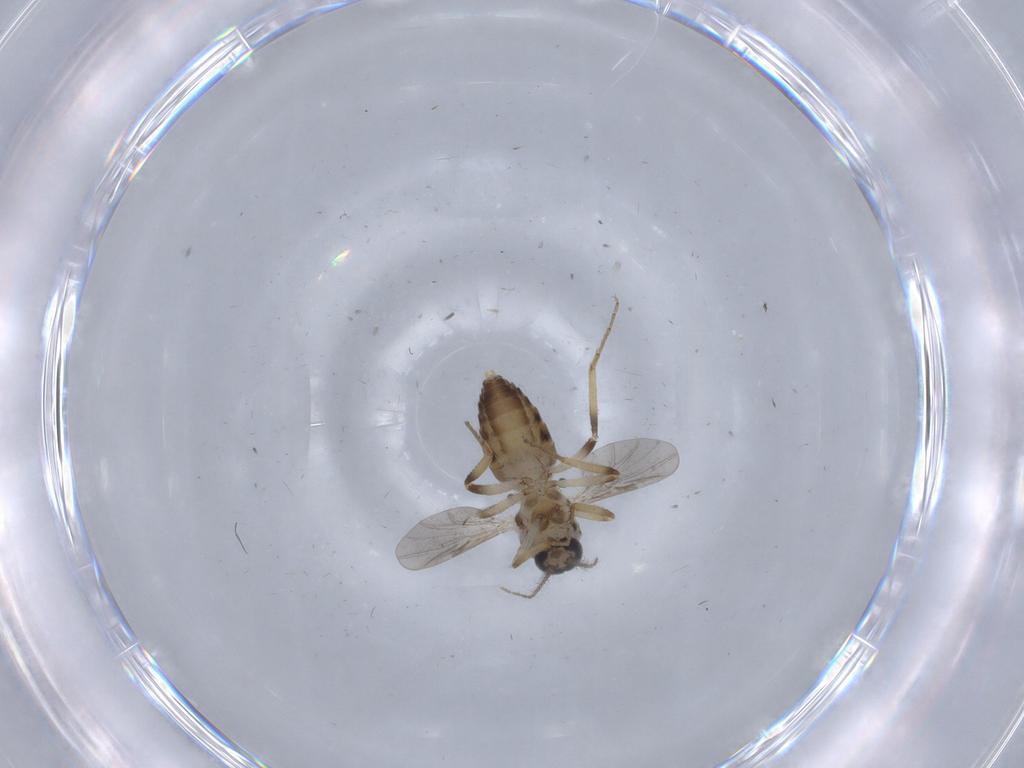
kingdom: Animalia
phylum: Arthropoda
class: Insecta
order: Diptera
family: Ceratopogonidae
